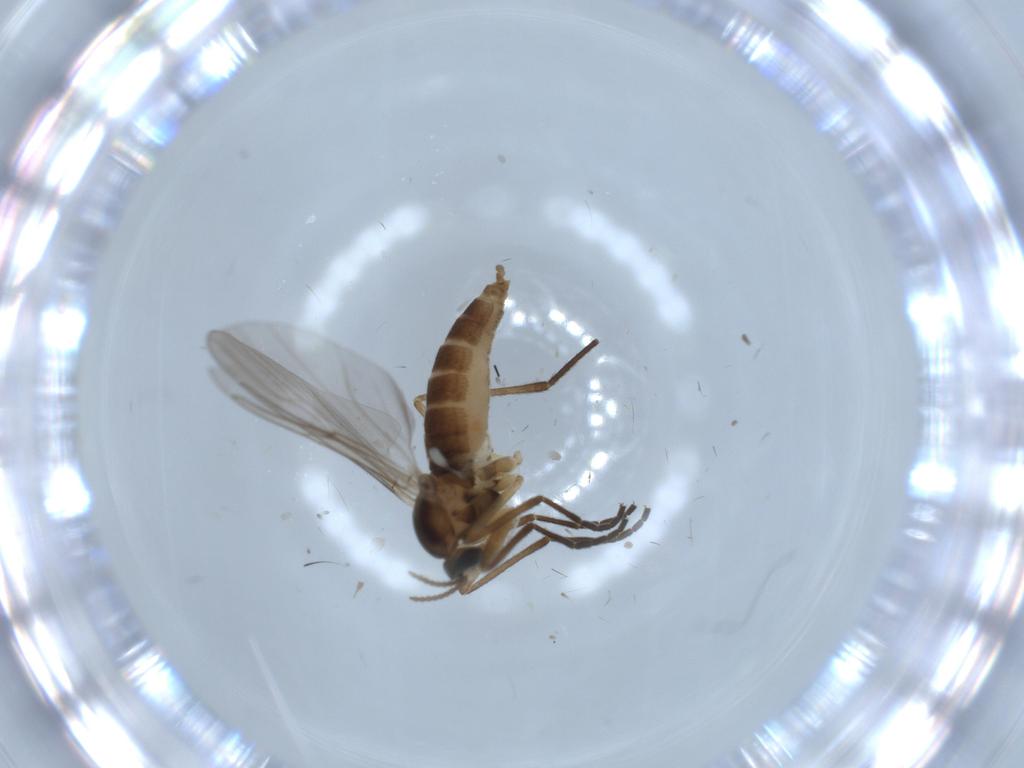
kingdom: Animalia
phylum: Arthropoda
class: Insecta
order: Diptera
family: Cecidomyiidae
